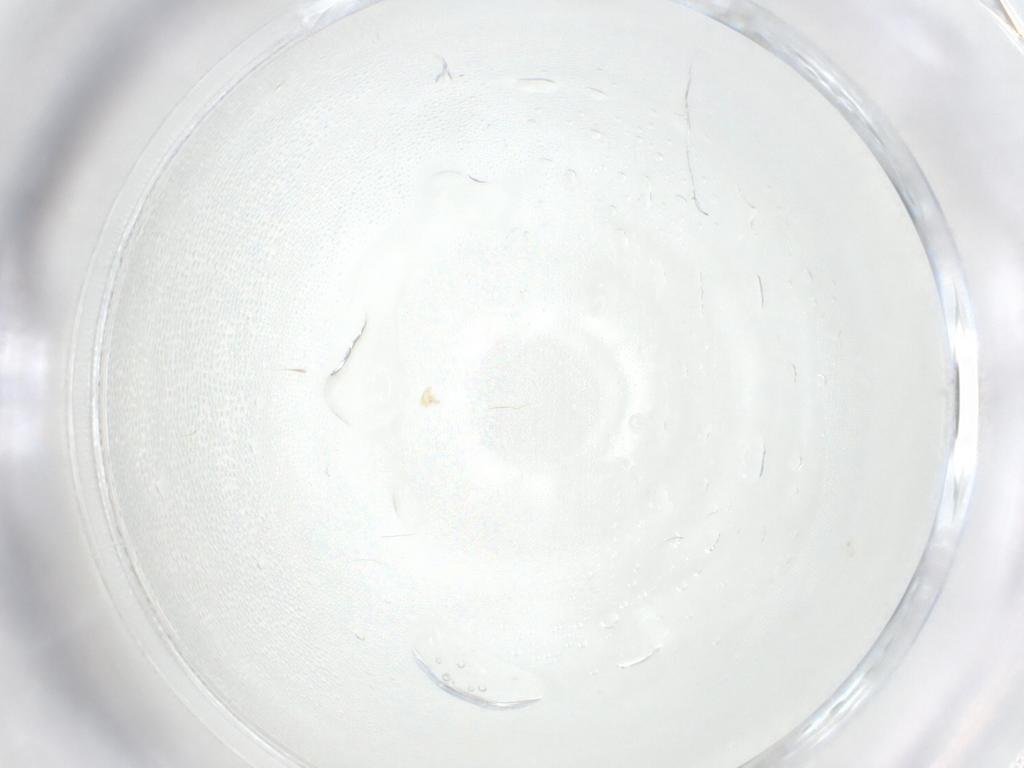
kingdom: Animalia
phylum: Arthropoda
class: Insecta
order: Diptera
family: Cecidomyiidae
